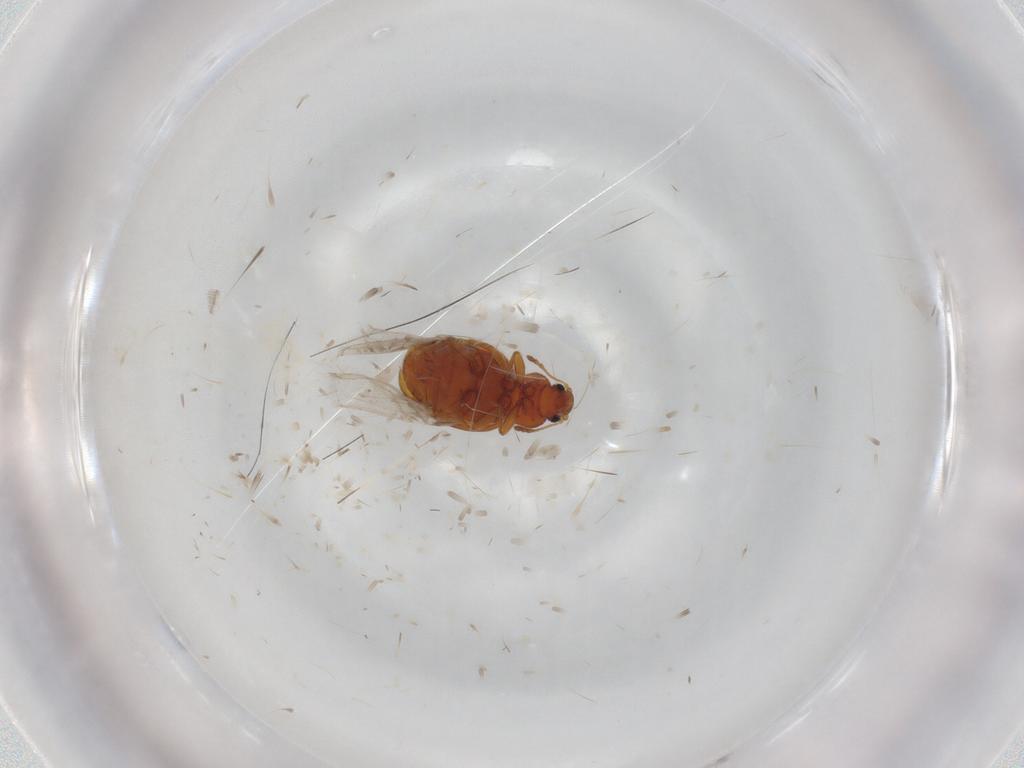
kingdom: Animalia
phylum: Arthropoda
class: Insecta
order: Coleoptera
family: Latridiidae
